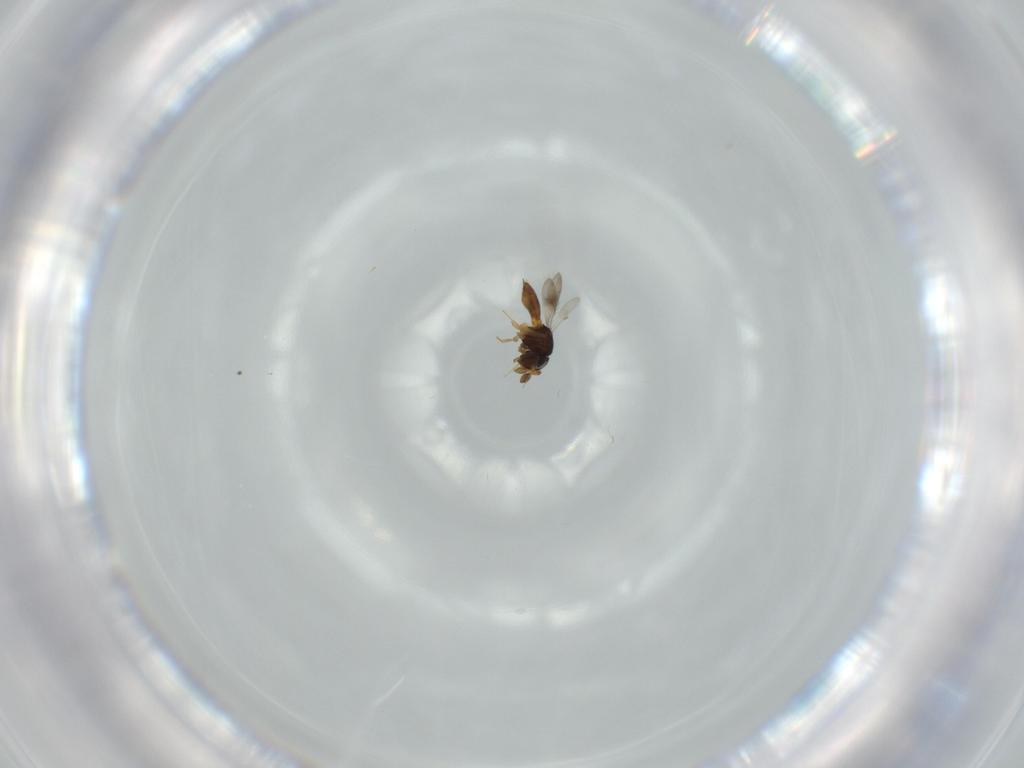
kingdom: Animalia
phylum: Arthropoda
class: Insecta
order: Hymenoptera
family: Scelionidae
